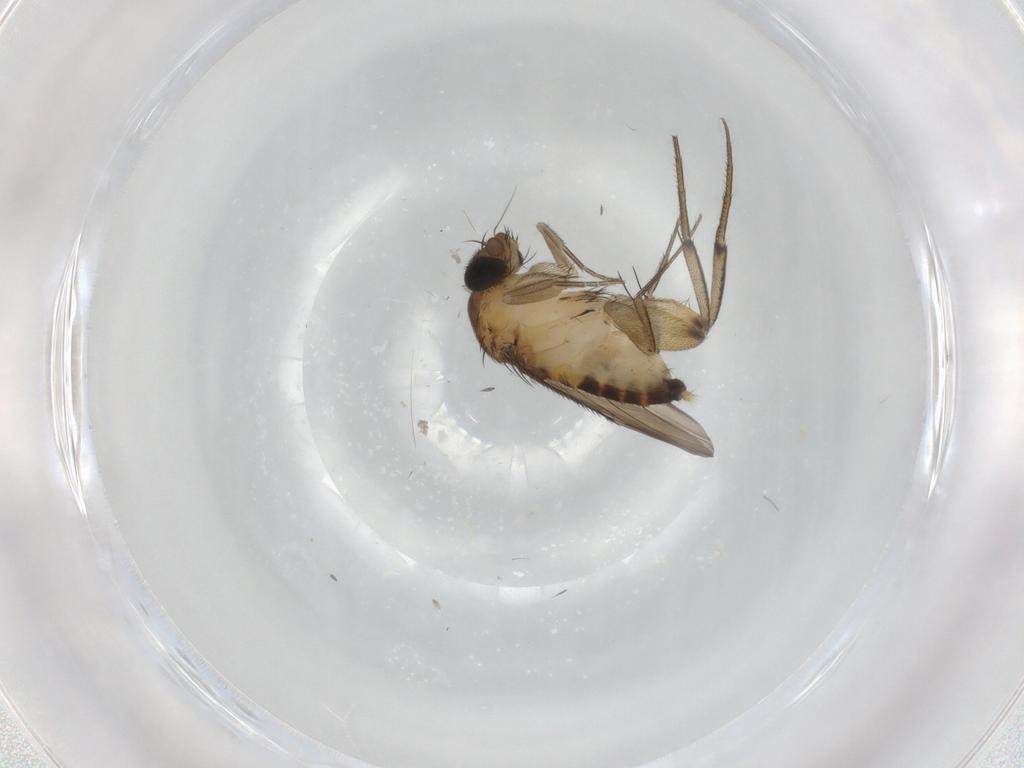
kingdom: Animalia
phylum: Arthropoda
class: Insecta
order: Diptera
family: Phoridae
